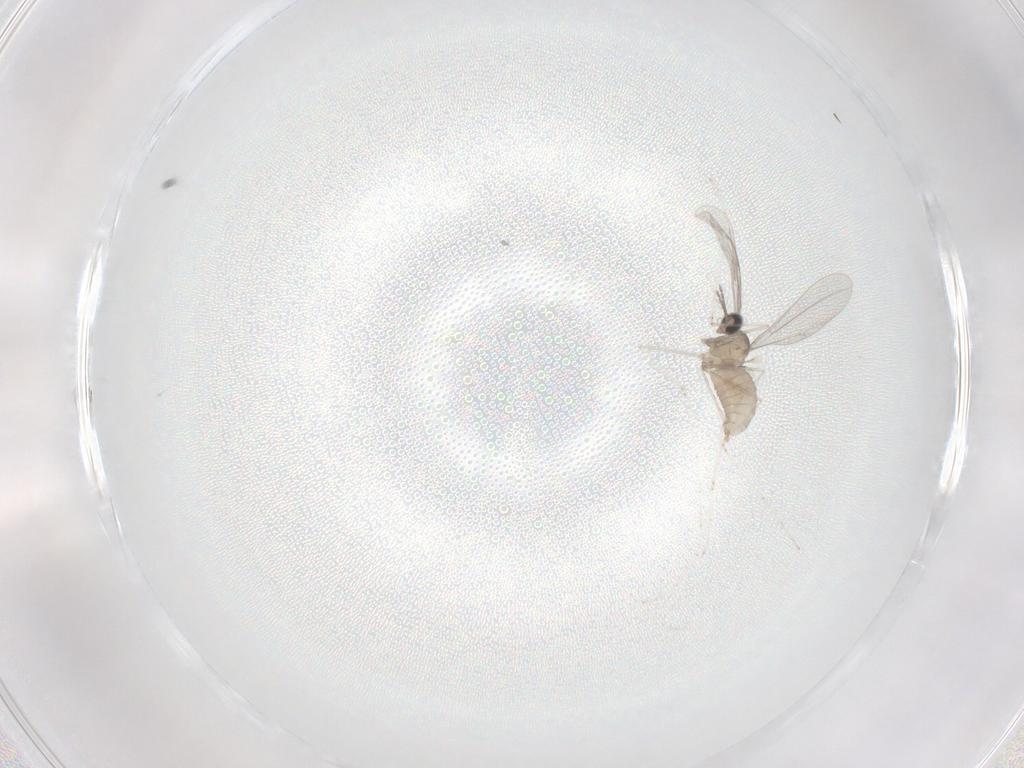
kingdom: Animalia
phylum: Arthropoda
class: Insecta
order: Diptera
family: Cecidomyiidae
